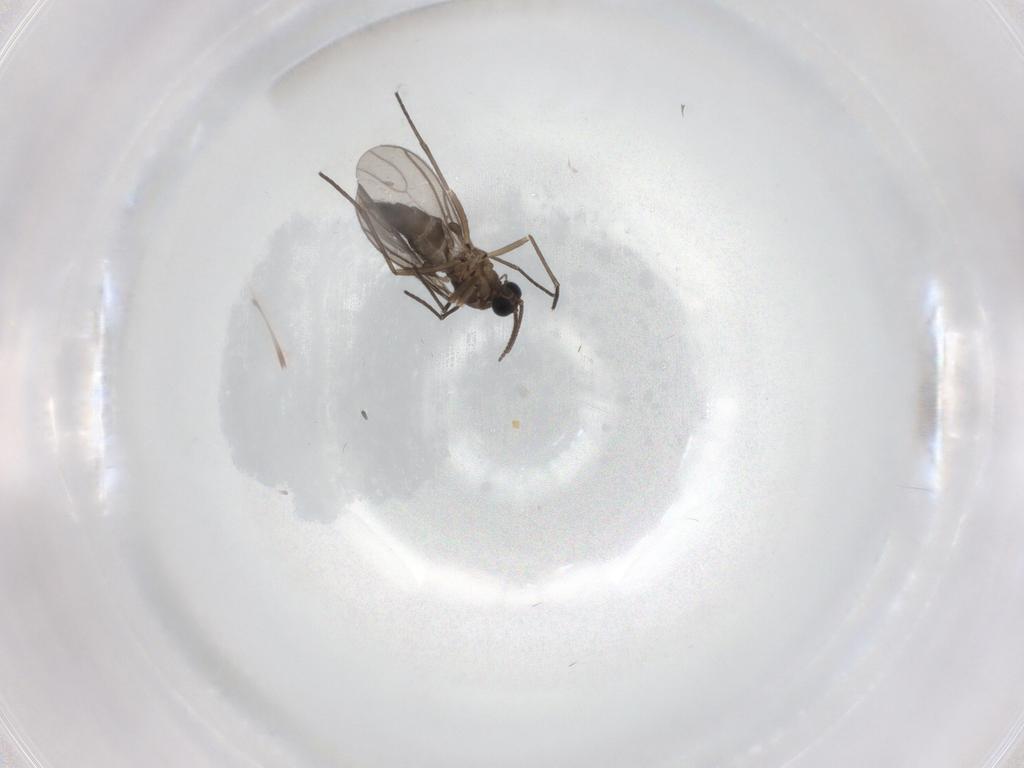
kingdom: Animalia
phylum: Arthropoda
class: Insecta
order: Diptera
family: Sciaridae
